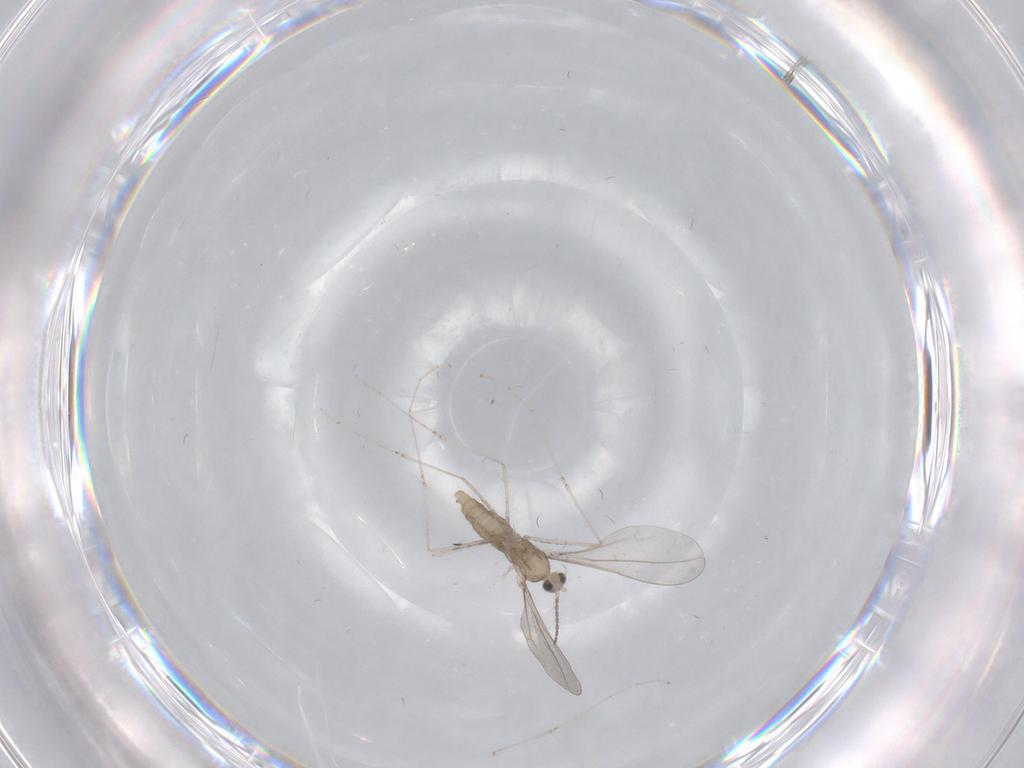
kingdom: Animalia
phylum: Arthropoda
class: Insecta
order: Diptera
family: Cecidomyiidae
